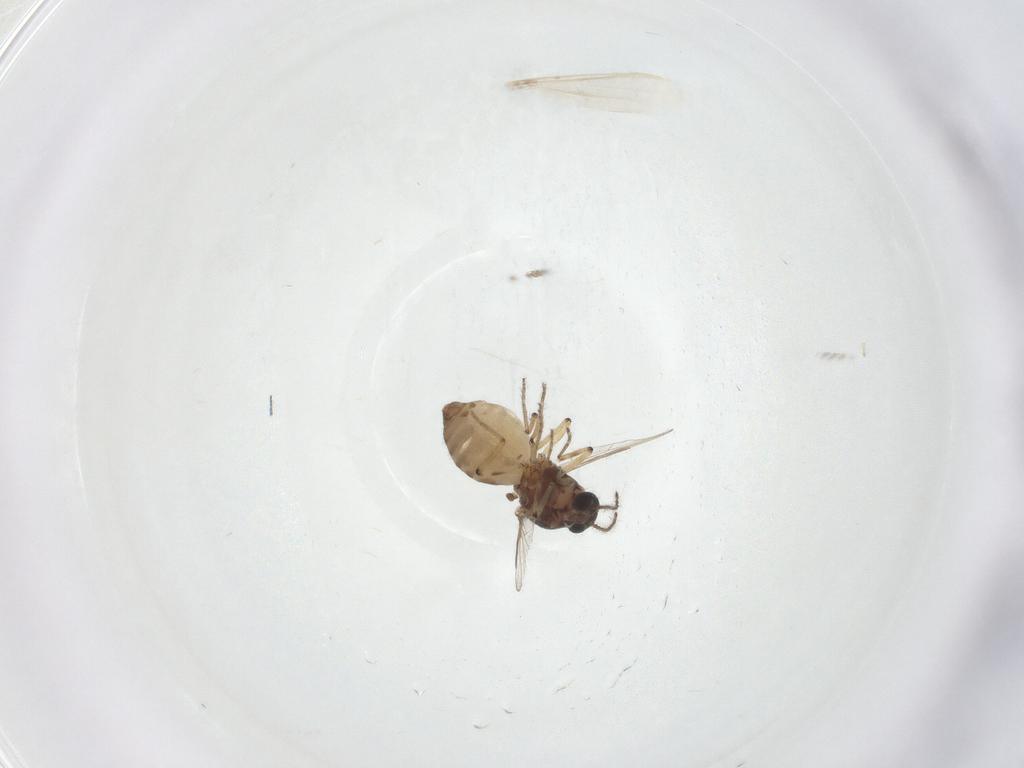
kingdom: Animalia
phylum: Arthropoda
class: Insecta
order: Diptera
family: Ceratopogonidae
